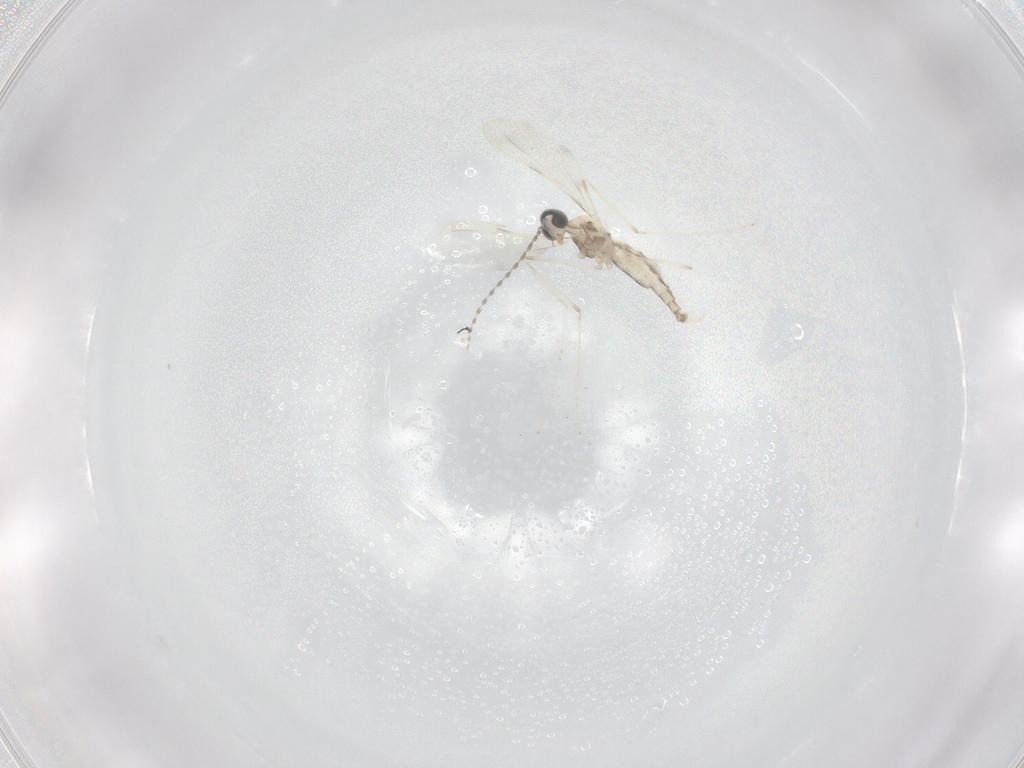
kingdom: Animalia
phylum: Arthropoda
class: Insecta
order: Diptera
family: Cecidomyiidae
